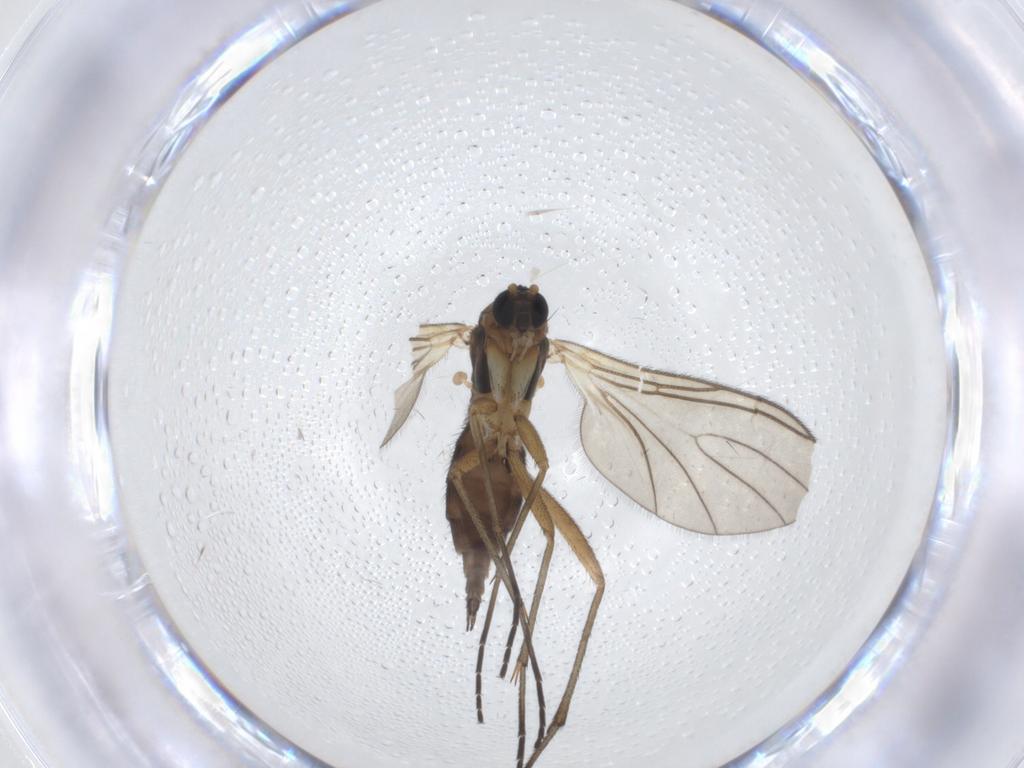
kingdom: Animalia
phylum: Arthropoda
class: Insecta
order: Diptera
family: Sciaridae
